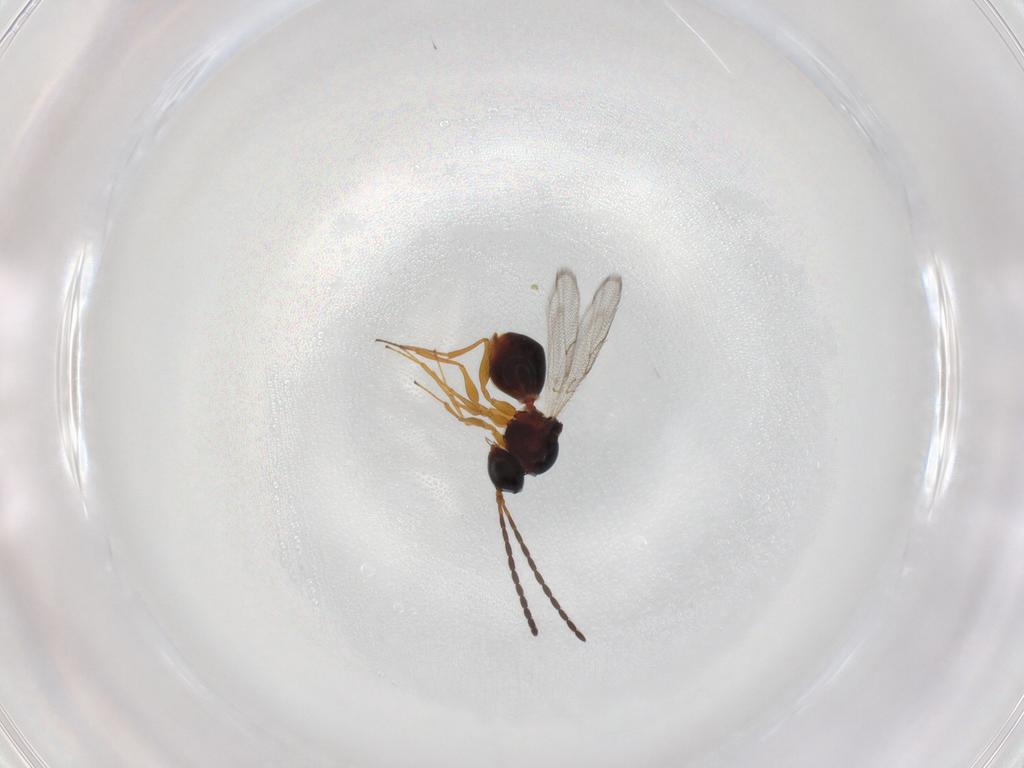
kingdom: Animalia
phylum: Arthropoda
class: Insecta
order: Hymenoptera
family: Figitidae
